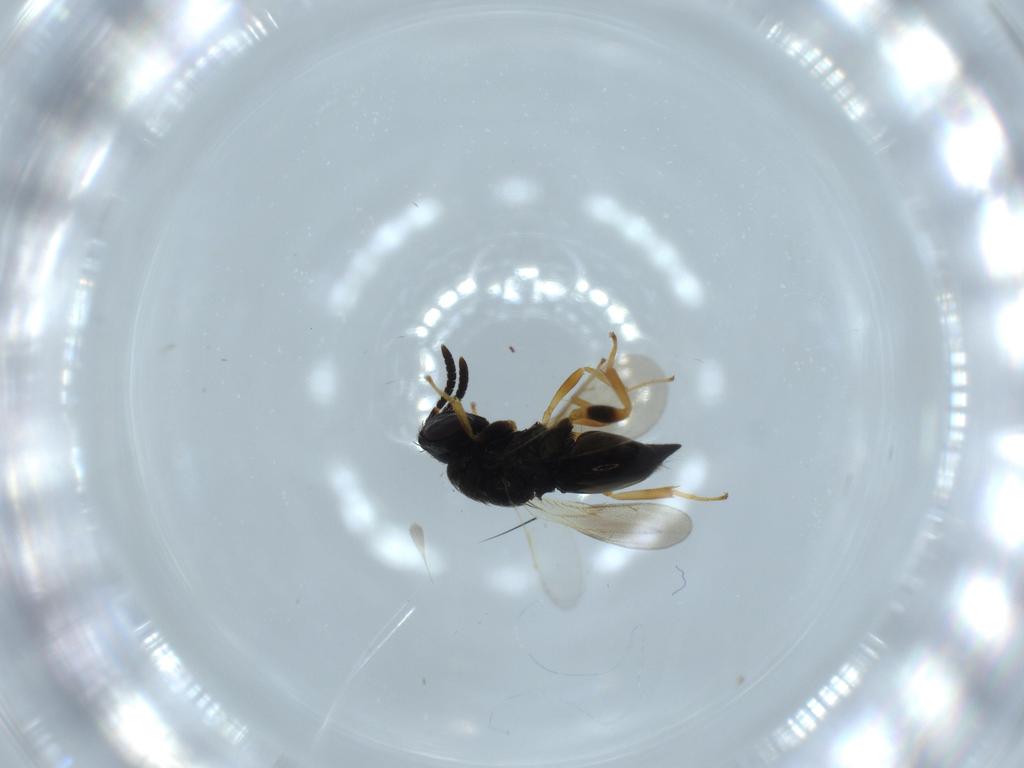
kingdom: Animalia
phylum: Arthropoda
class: Insecta
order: Hymenoptera
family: Pteromalidae
